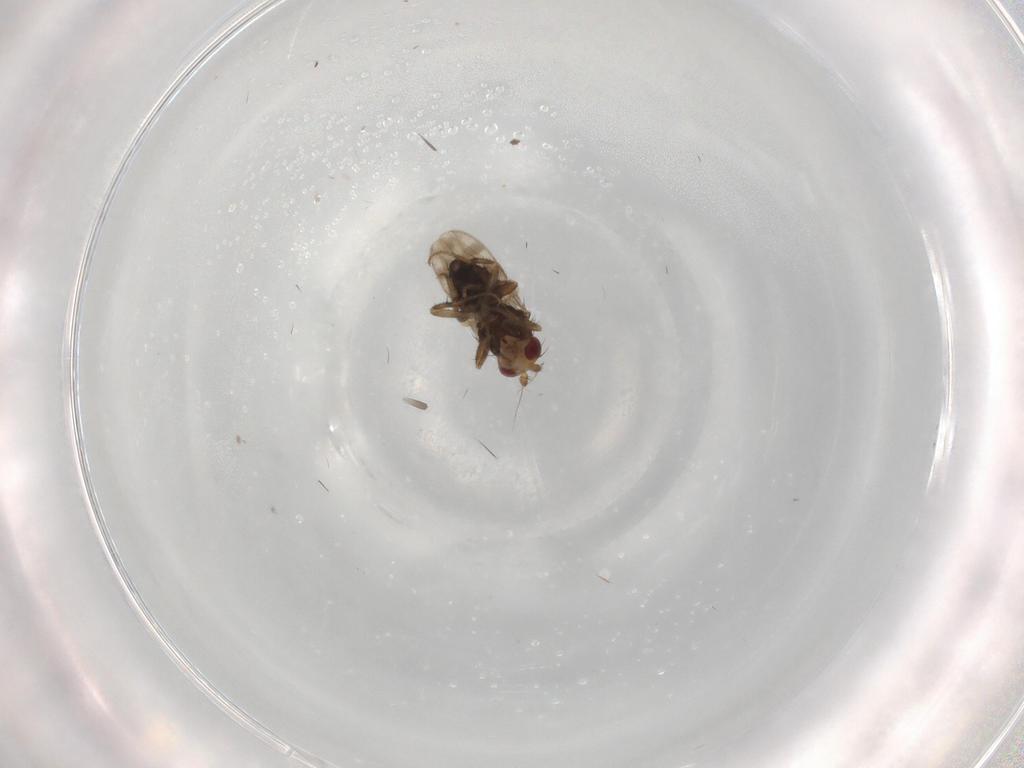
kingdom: Animalia
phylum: Arthropoda
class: Insecta
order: Diptera
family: Sphaeroceridae
